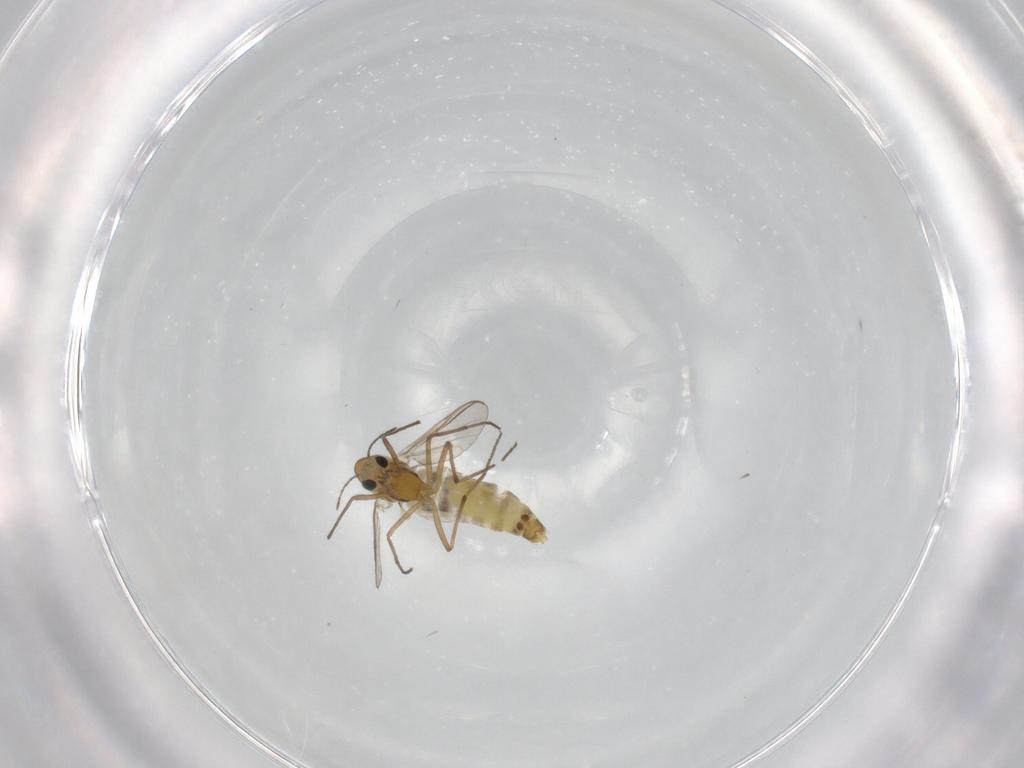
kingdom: Animalia
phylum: Arthropoda
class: Insecta
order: Diptera
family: Chironomidae
